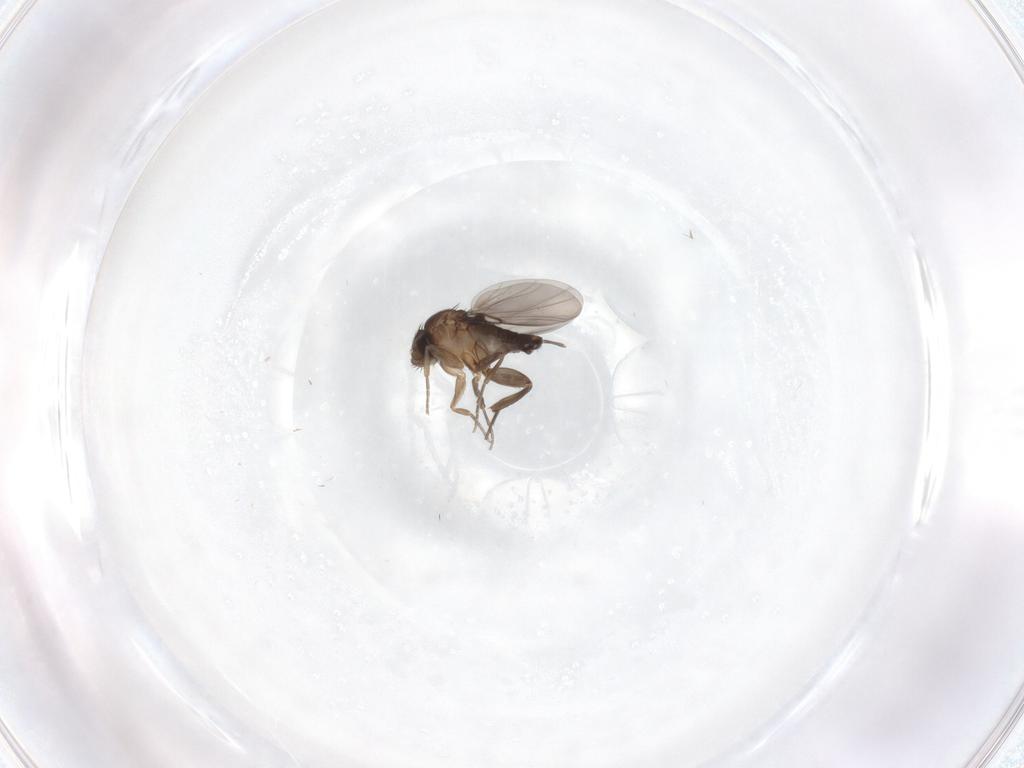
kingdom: Animalia
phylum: Arthropoda
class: Insecta
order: Diptera
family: Phoridae
